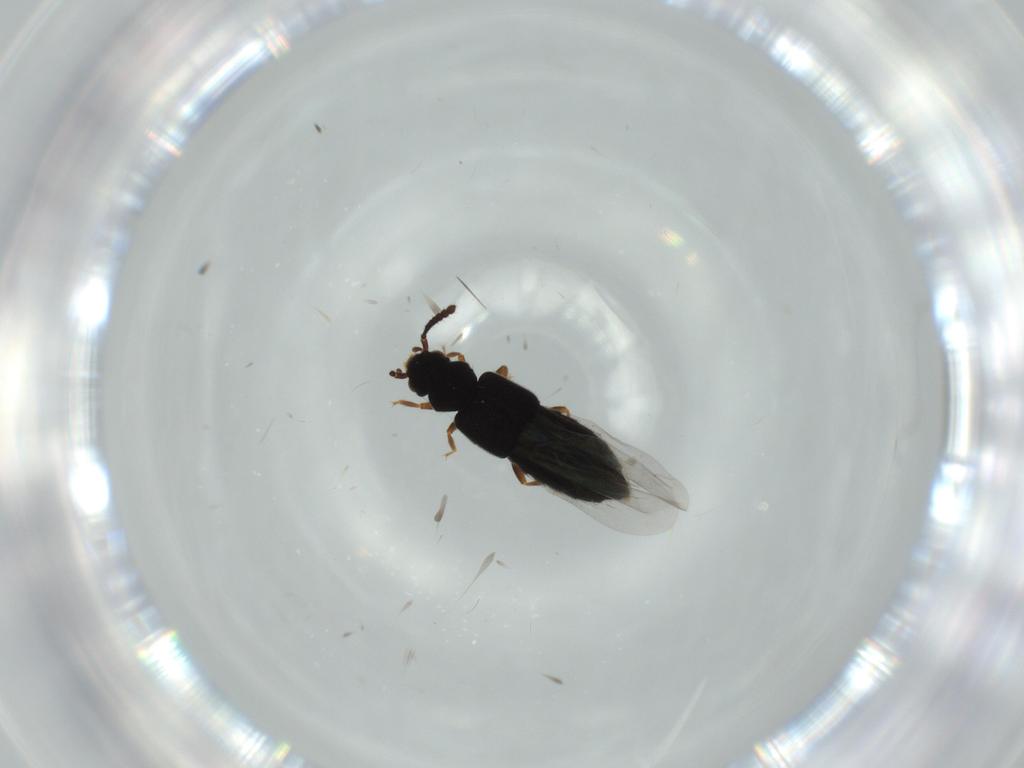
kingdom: Animalia
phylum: Arthropoda
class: Insecta
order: Coleoptera
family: Staphylinidae
